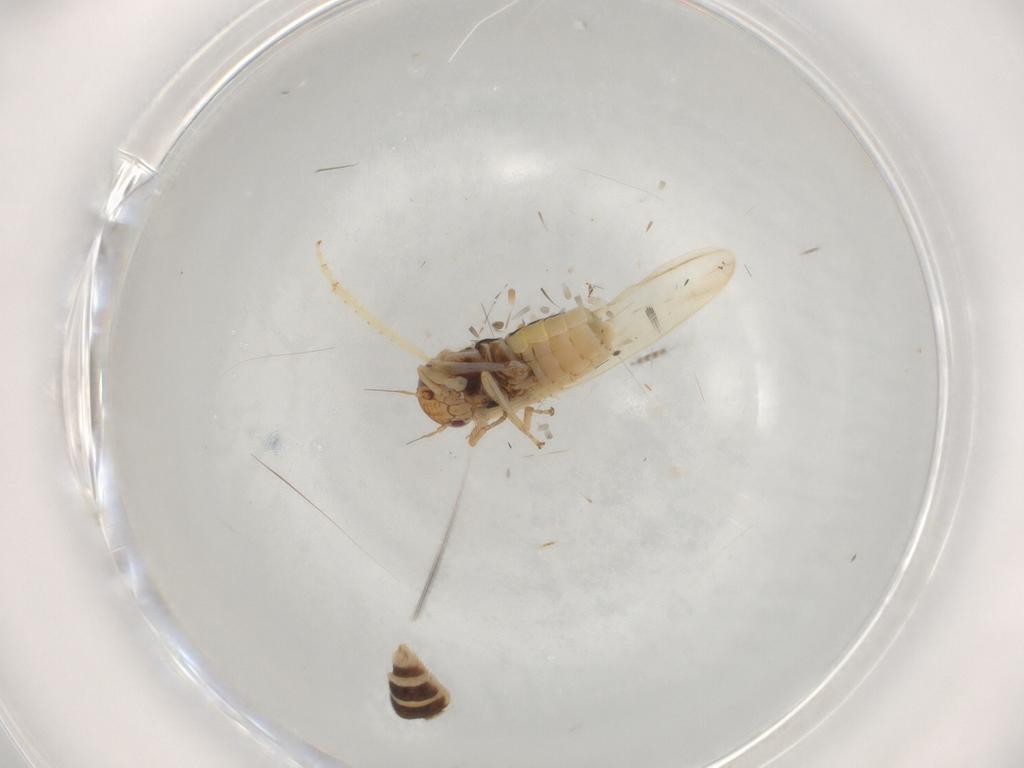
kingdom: Animalia
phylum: Arthropoda
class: Insecta
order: Hemiptera
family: Cicadellidae
